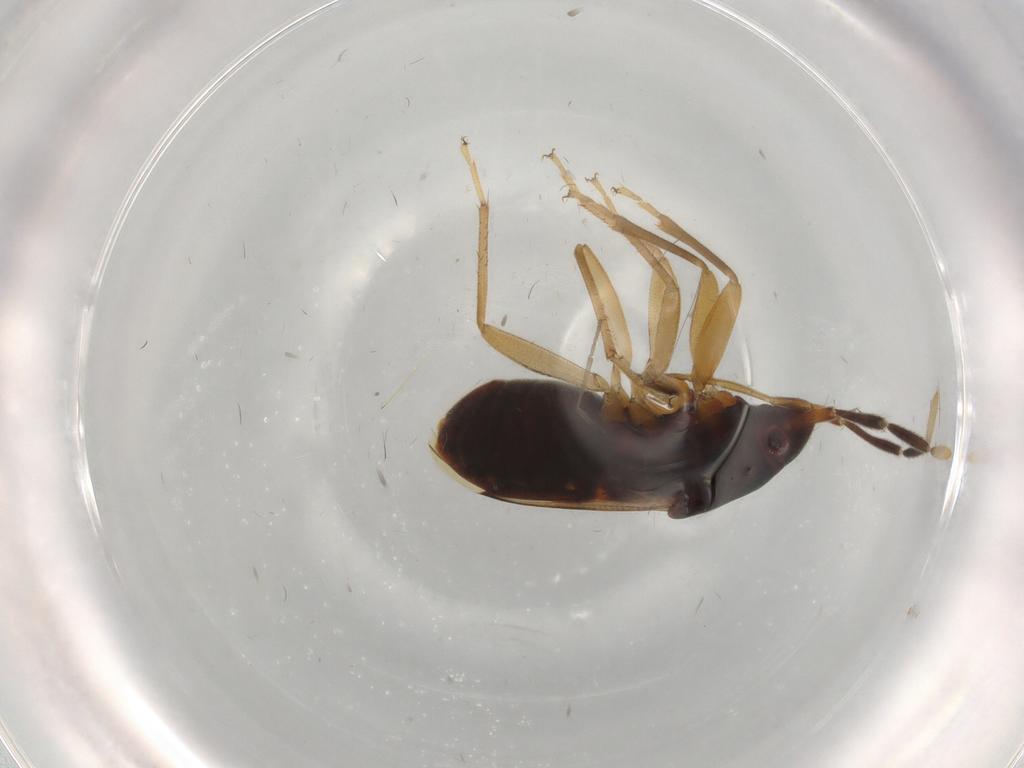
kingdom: Animalia
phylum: Arthropoda
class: Insecta
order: Hemiptera
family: Rhyparochromidae
